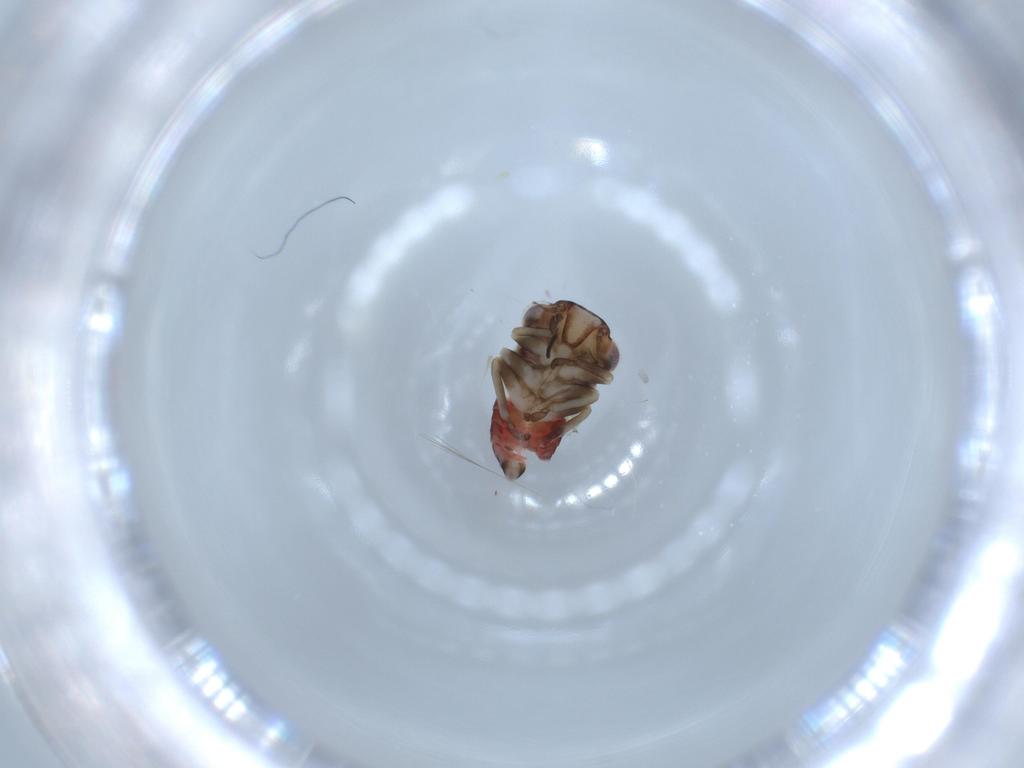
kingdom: Animalia
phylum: Arthropoda
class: Insecta
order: Hemiptera
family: Cicadellidae
